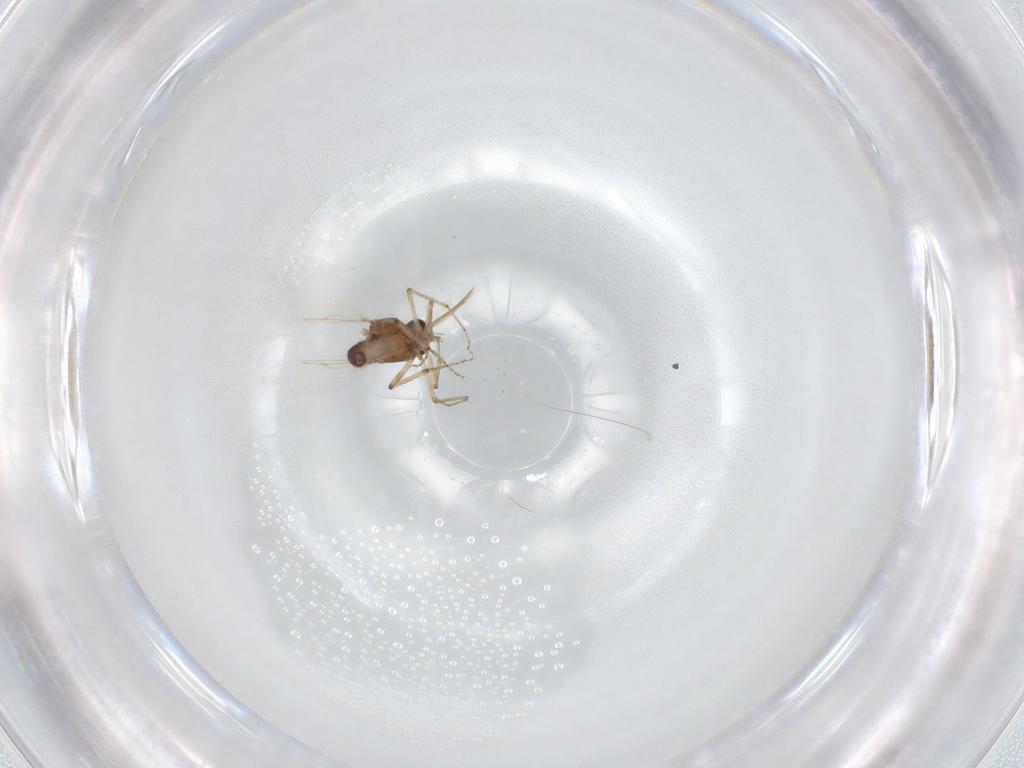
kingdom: Animalia
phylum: Arthropoda
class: Insecta
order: Diptera
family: Ceratopogonidae
